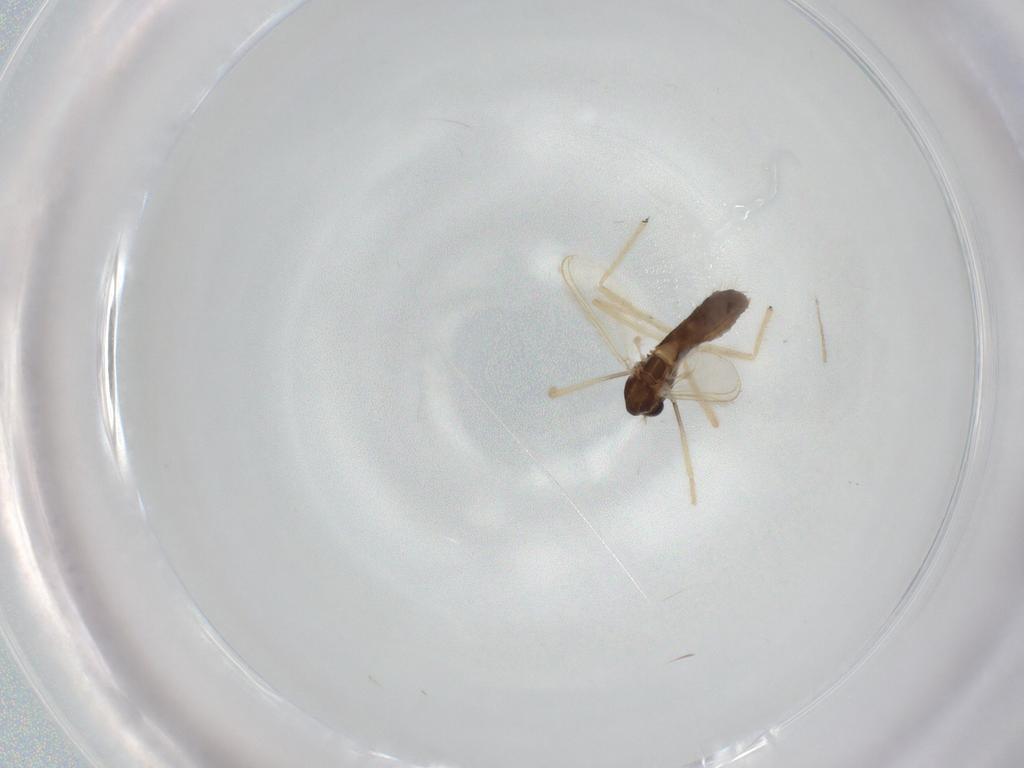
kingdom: Animalia
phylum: Arthropoda
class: Insecta
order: Diptera
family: Chironomidae
